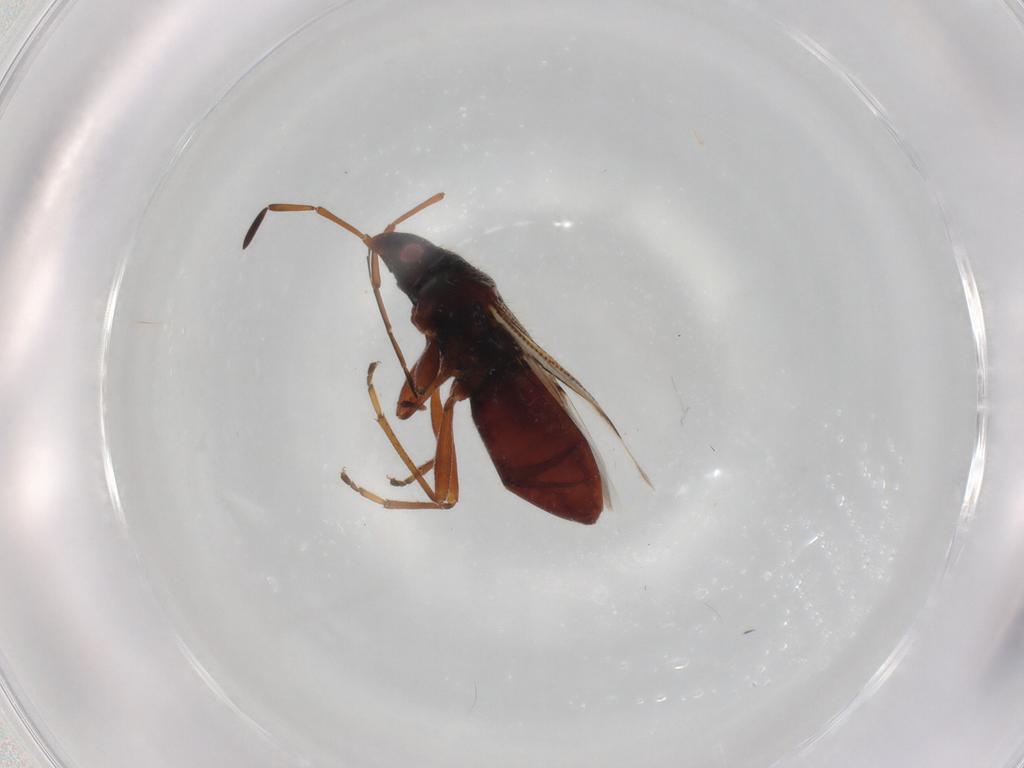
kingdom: Animalia
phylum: Arthropoda
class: Insecta
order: Hemiptera
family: Rhyparochromidae
